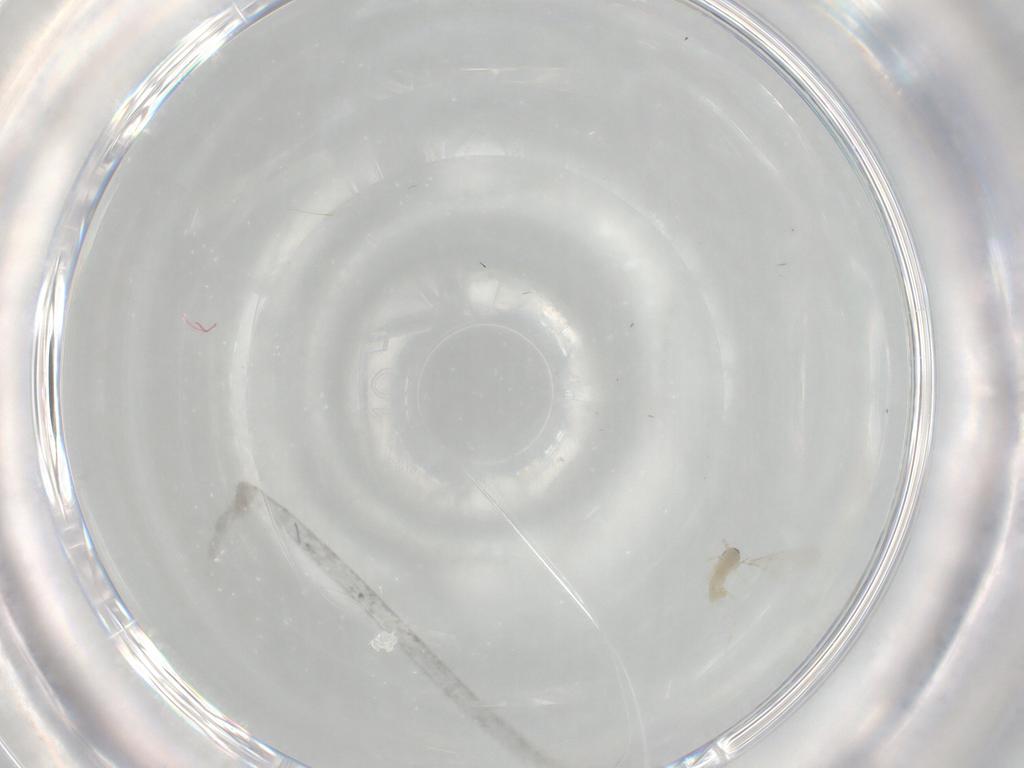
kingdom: Animalia
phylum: Arthropoda
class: Insecta
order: Diptera
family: Cecidomyiidae
